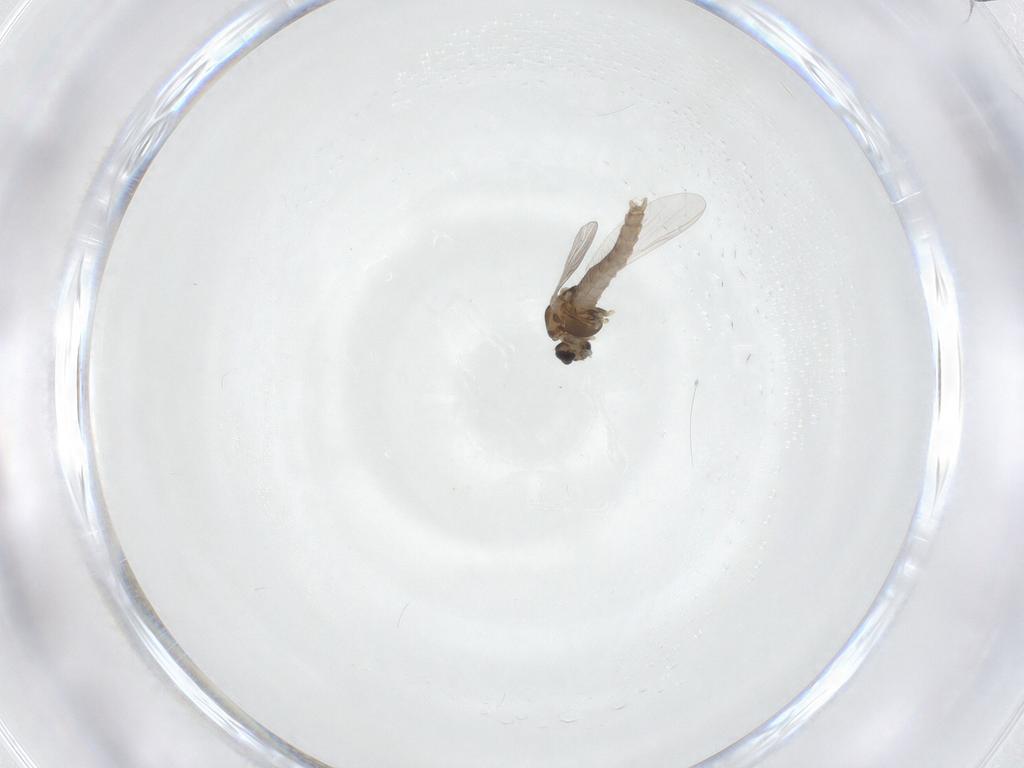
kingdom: Animalia
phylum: Arthropoda
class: Insecta
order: Diptera
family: Chironomidae
